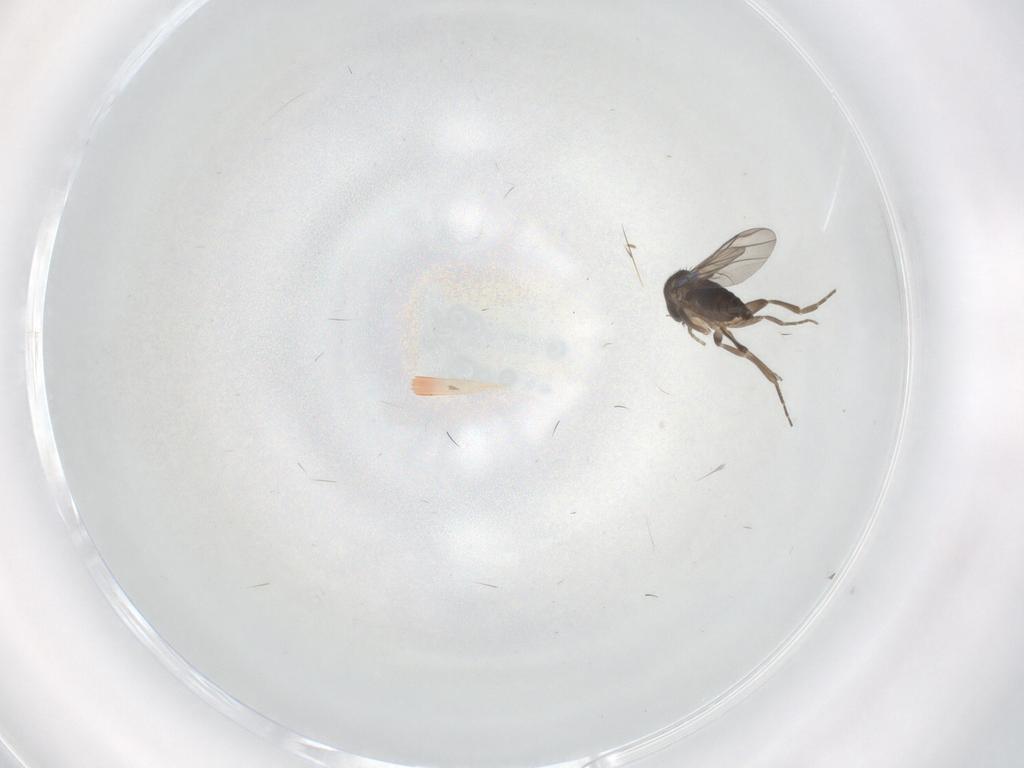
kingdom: Animalia
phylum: Arthropoda
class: Insecta
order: Diptera
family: Phoridae
